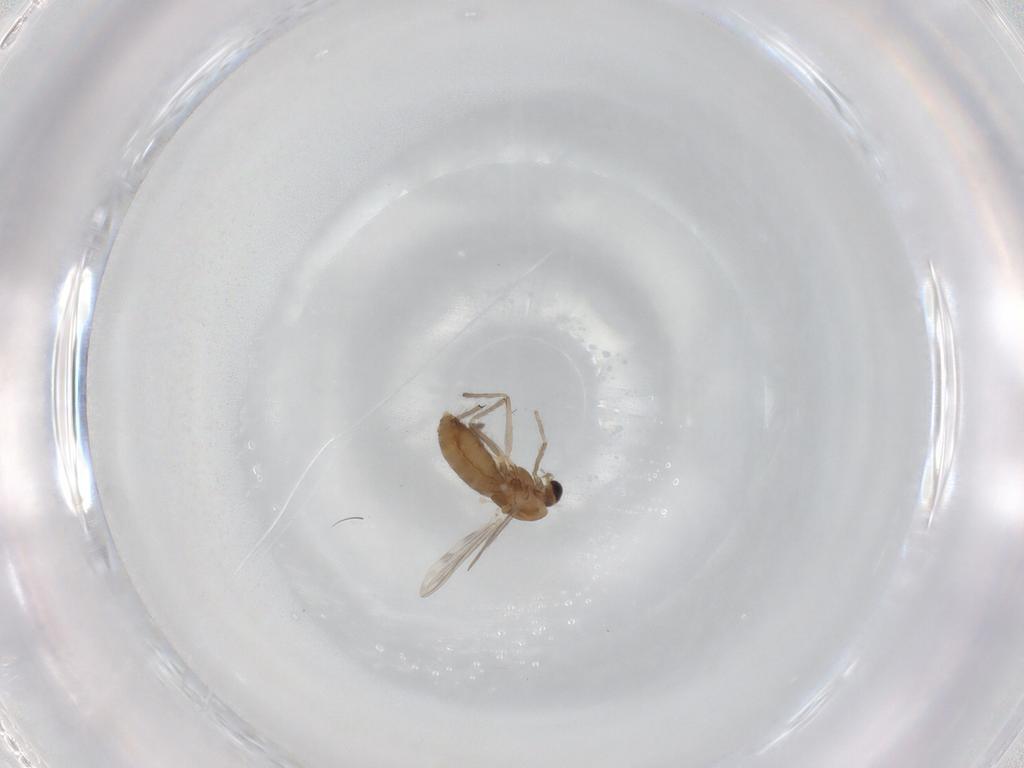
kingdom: Animalia
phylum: Arthropoda
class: Insecta
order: Diptera
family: Chironomidae
